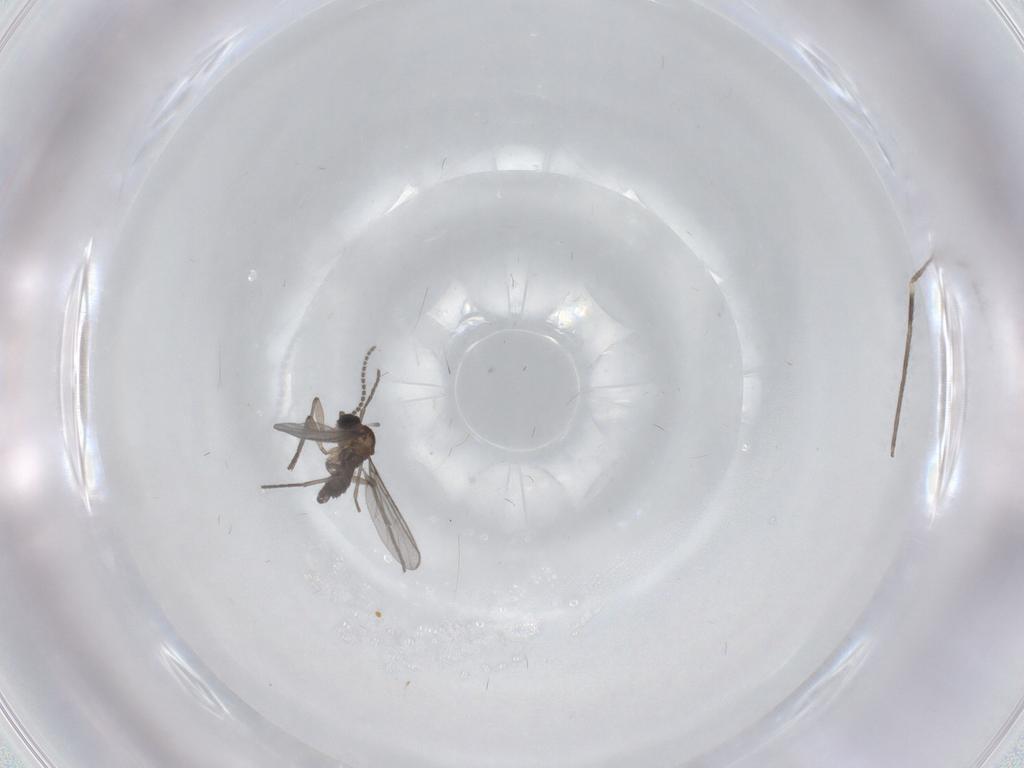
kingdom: Animalia
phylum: Arthropoda
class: Insecta
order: Diptera
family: Limoniidae
